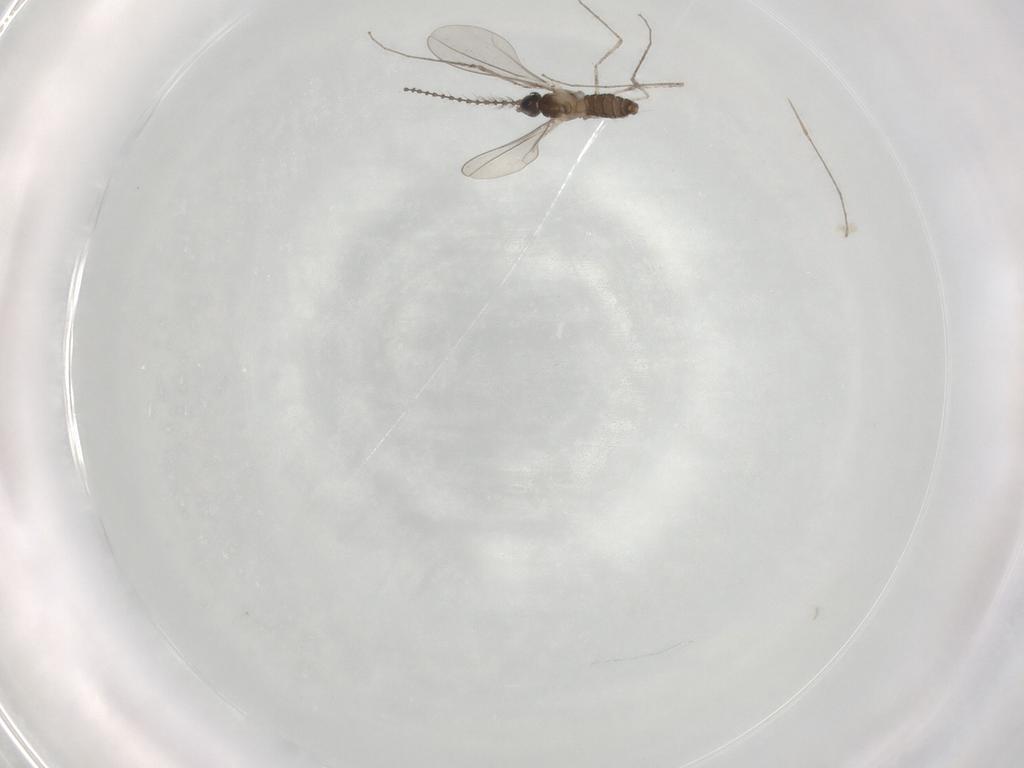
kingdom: Animalia
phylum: Arthropoda
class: Insecta
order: Diptera
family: Cecidomyiidae
